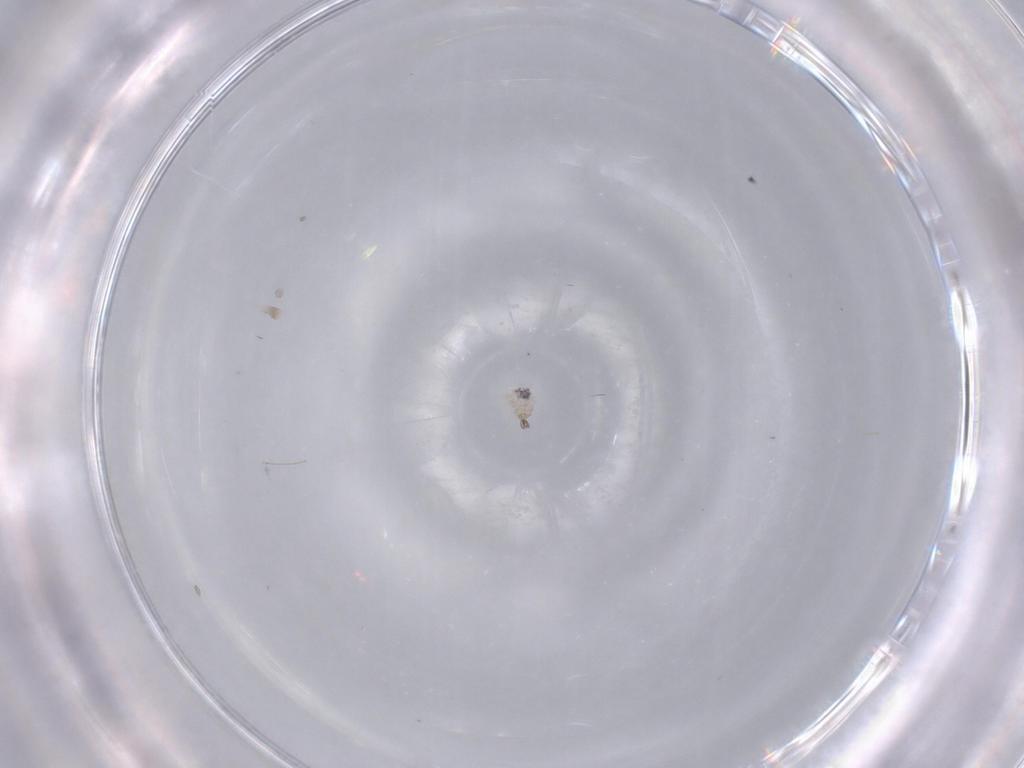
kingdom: Animalia
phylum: Arthropoda
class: Insecta
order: Diptera
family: Cecidomyiidae
